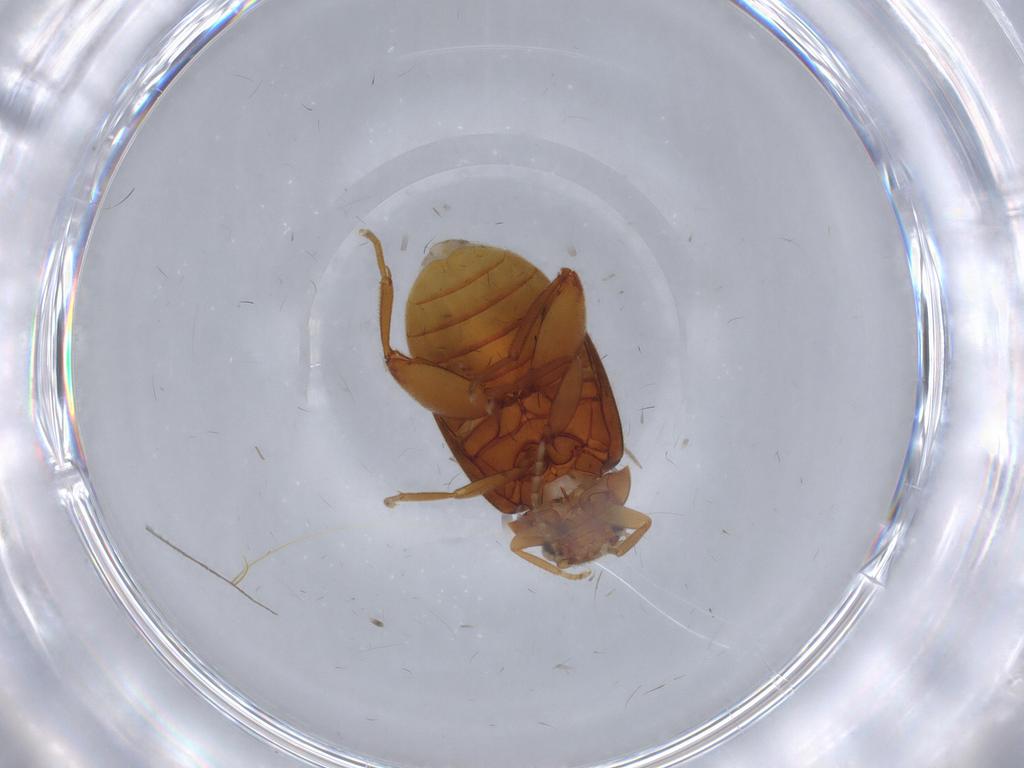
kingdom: Animalia
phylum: Arthropoda
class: Insecta
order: Coleoptera
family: Scirtidae
